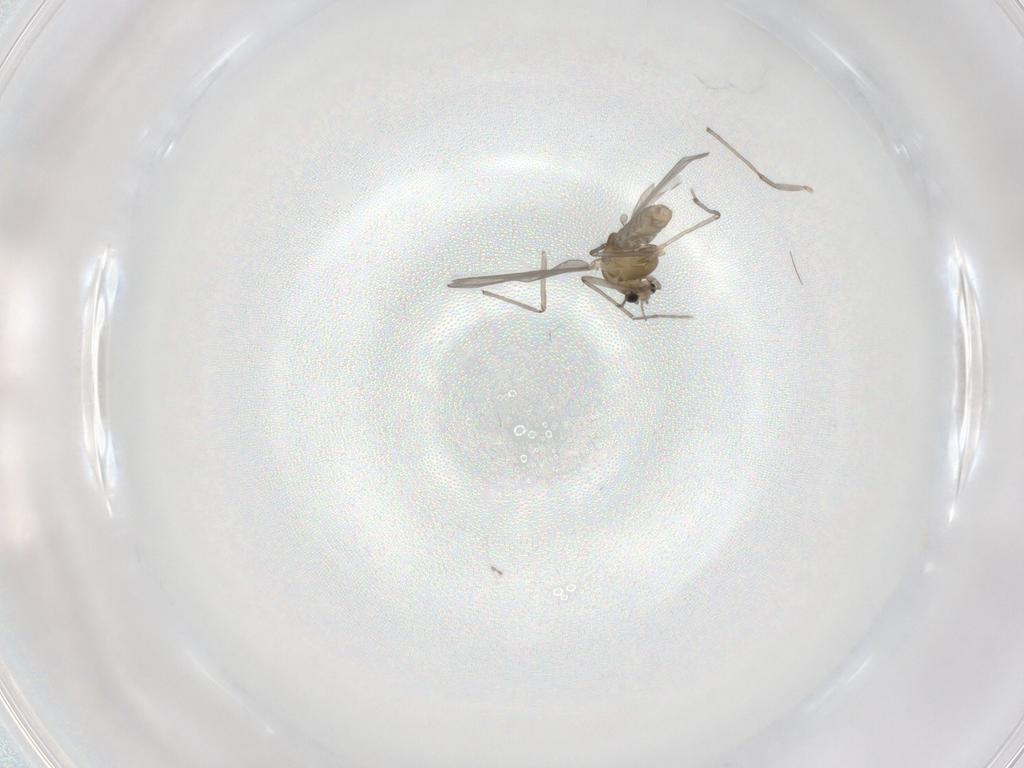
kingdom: Animalia
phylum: Arthropoda
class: Insecta
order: Diptera
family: Chironomidae
